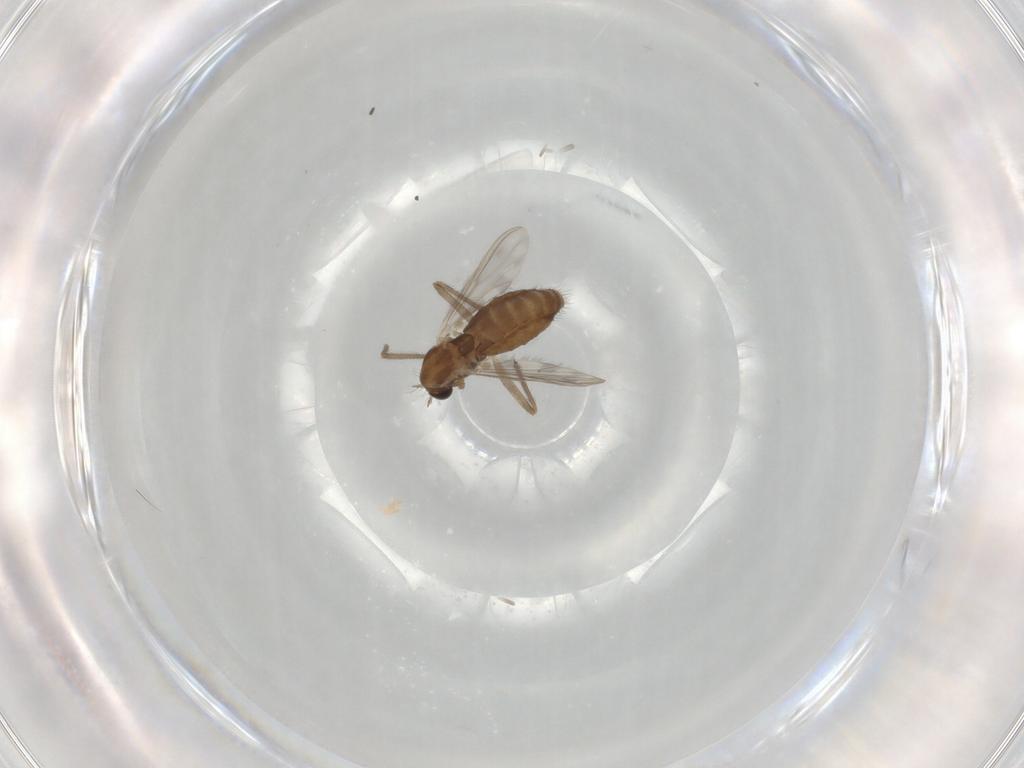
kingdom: Animalia
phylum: Arthropoda
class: Insecta
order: Diptera
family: Chironomidae
